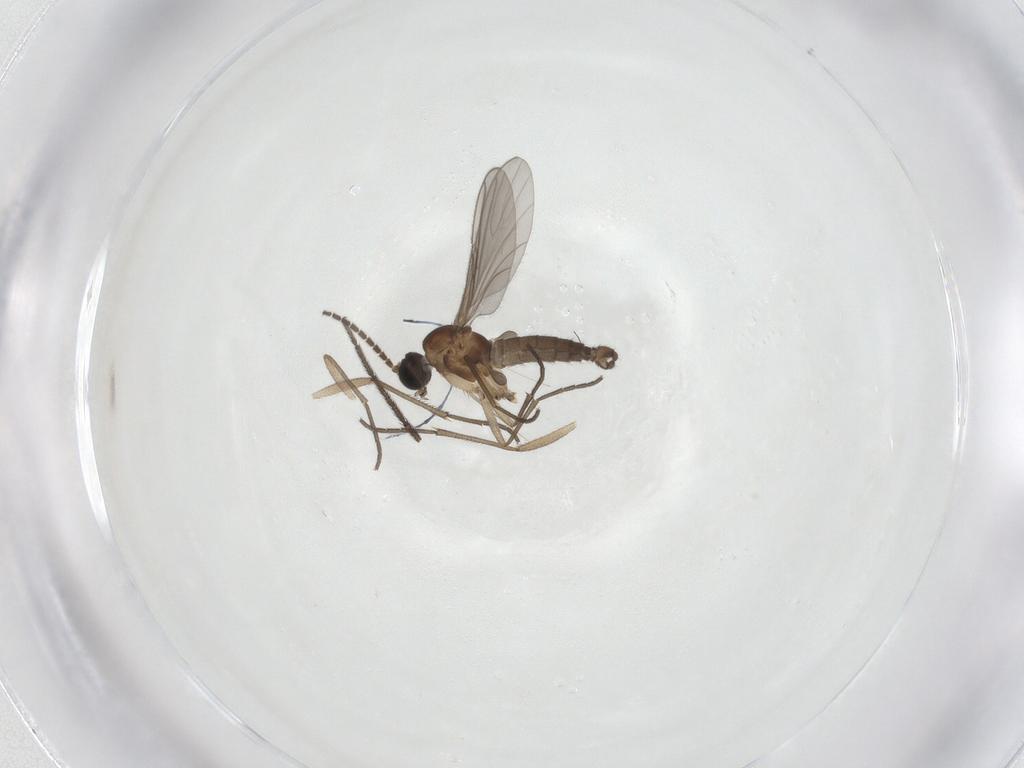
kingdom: Animalia
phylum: Arthropoda
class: Insecta
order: Diptera
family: Sciaridae
